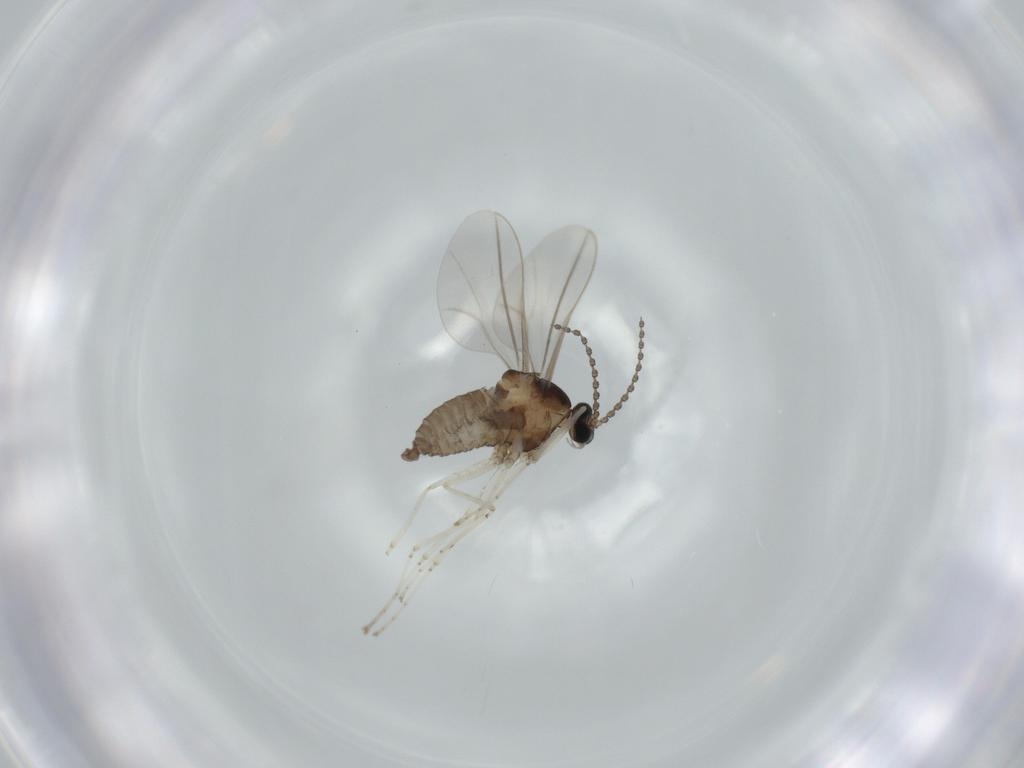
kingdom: Animalia
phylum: Arthropoda
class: Insecta
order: Diptera
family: Cecidomyiidae
